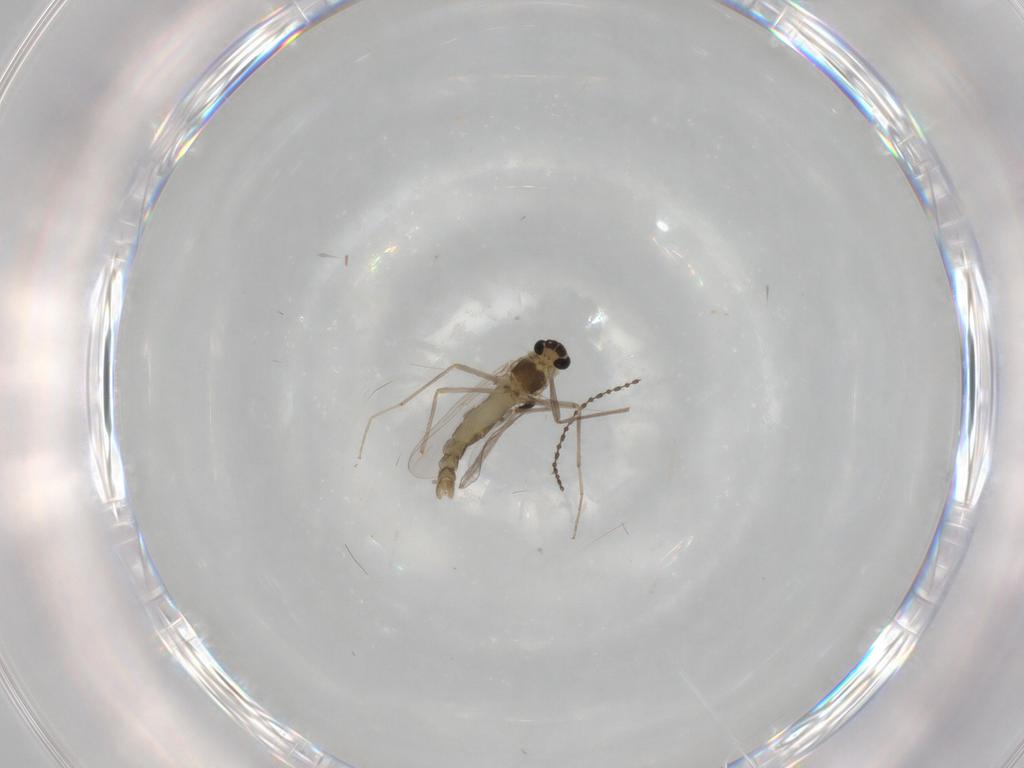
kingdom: Animalia
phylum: Arthropoda
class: Insecta
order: Diptera
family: Chironomidae
